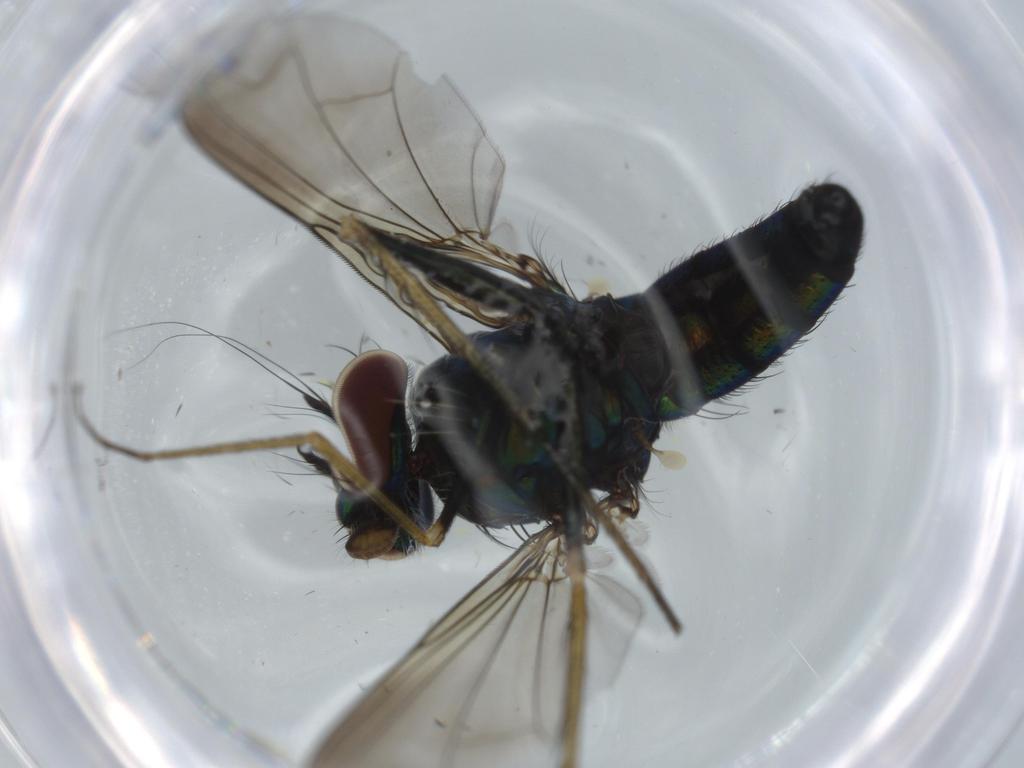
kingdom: Animalia
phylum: Arthropoda
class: Insecta
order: Diptera
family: Dolichopodidae
